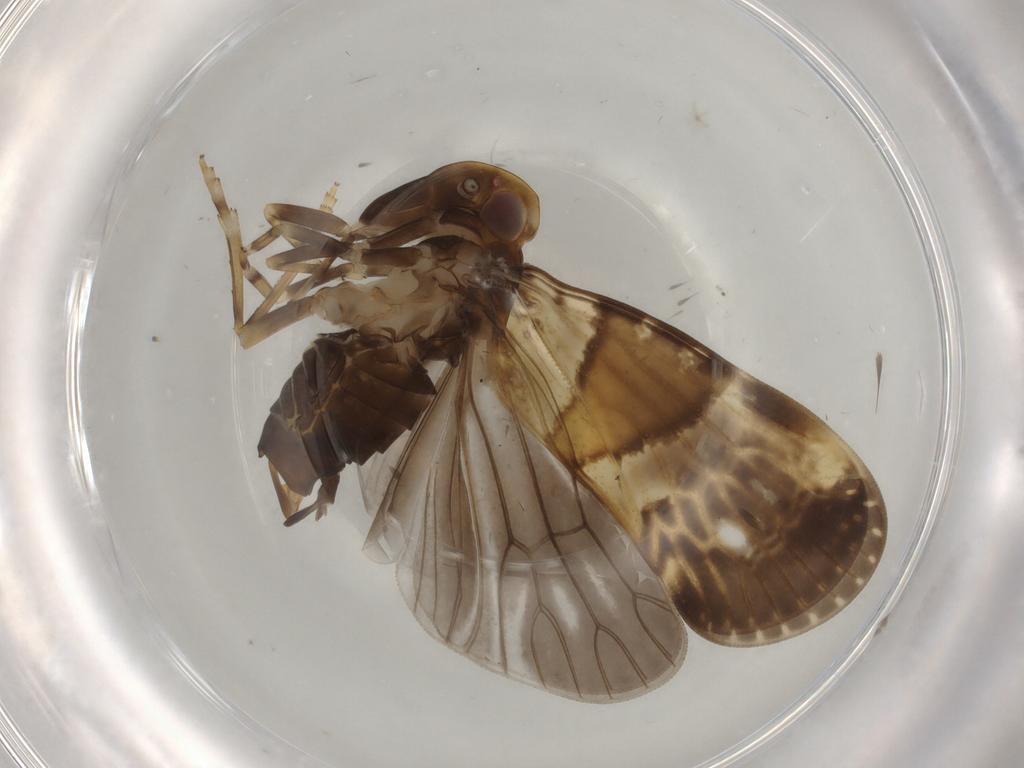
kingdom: Animalia
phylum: Arthropoda
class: Insecta
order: Hemiptera
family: Cixiidae
